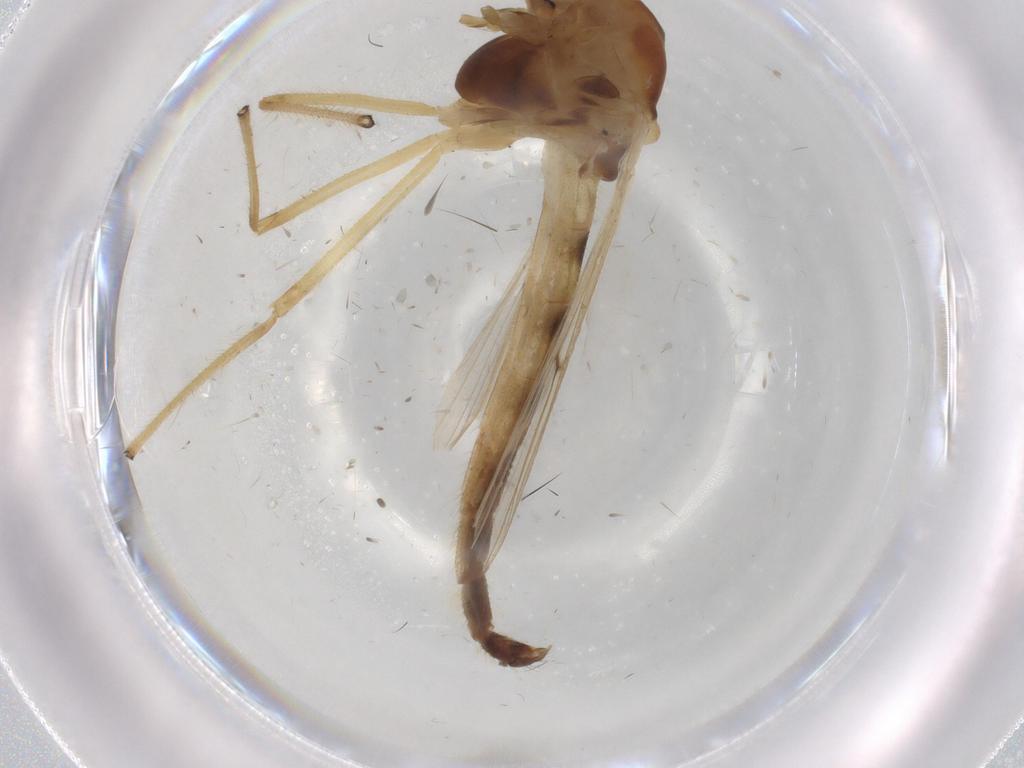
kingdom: Animalia
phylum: Arthropoda
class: Insecta
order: Diptera
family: Chironomidae
